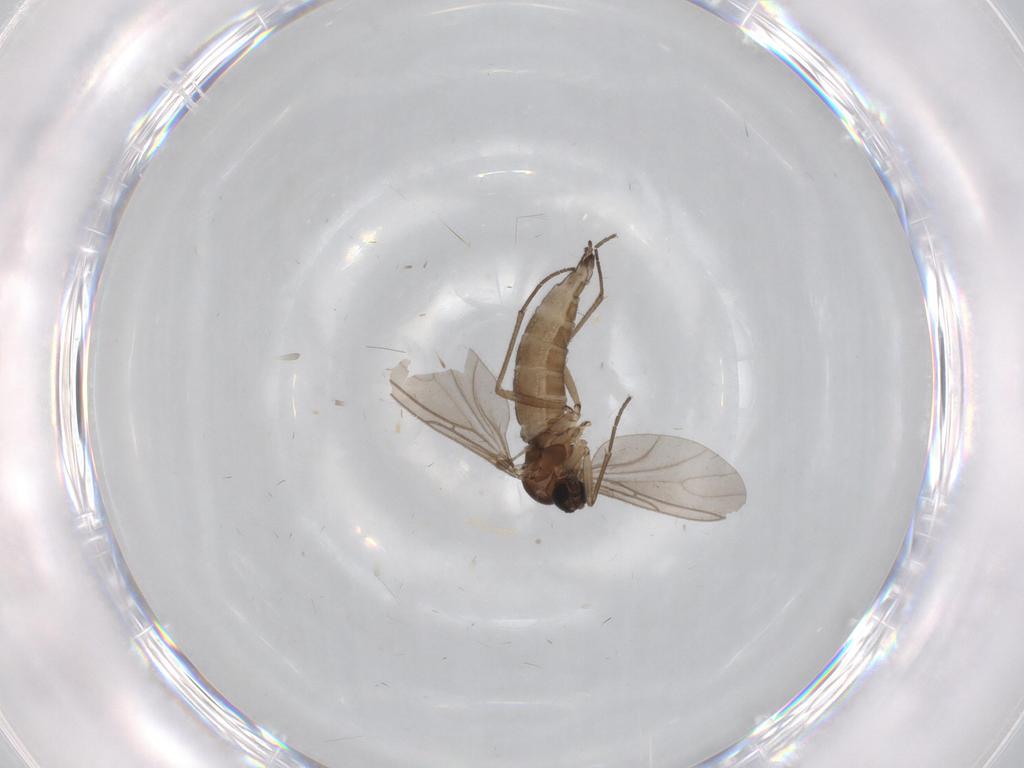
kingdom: Animalia
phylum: Arthropoda
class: Insecta
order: Diptera
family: Sciaridae
